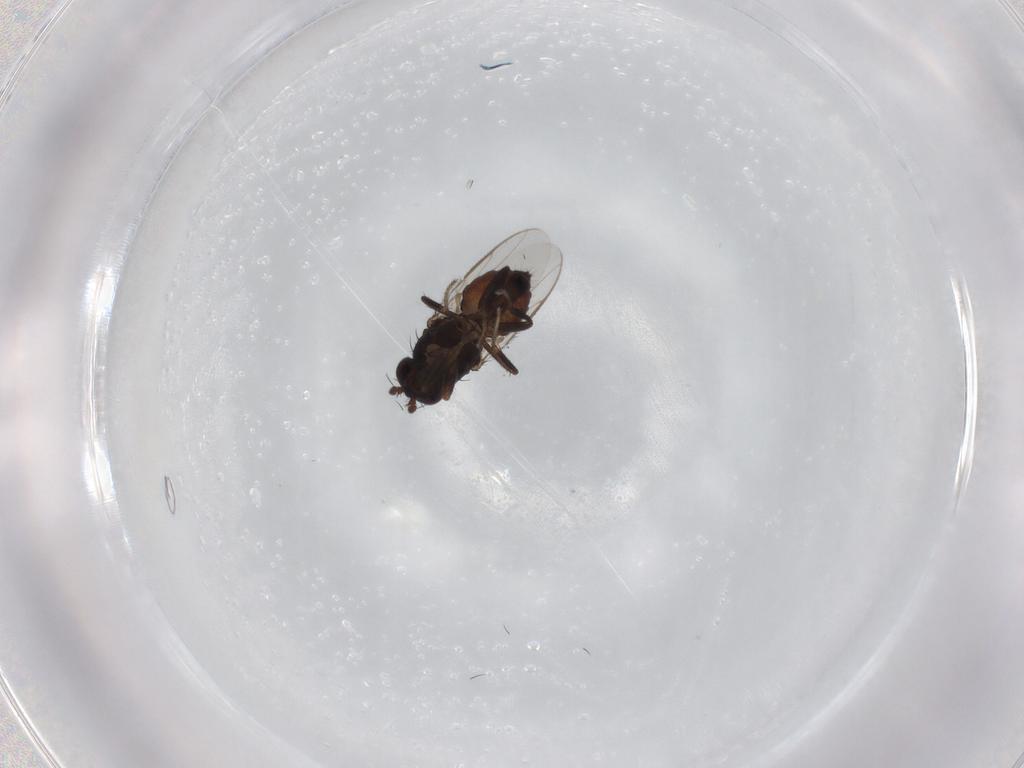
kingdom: Animalia
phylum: Arthropoda
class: Insecta
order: Diptera
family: Sphaeroceridae
